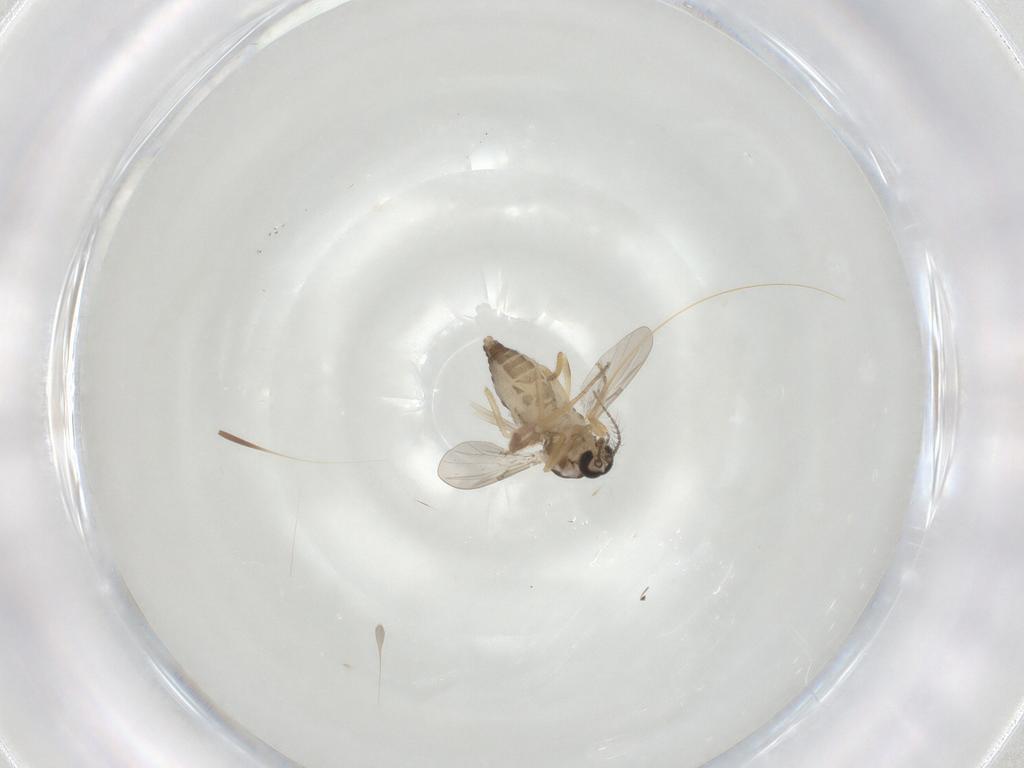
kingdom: Animalia
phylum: Arthropoda
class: Insecta
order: Diptera
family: Ceratopogonidae
